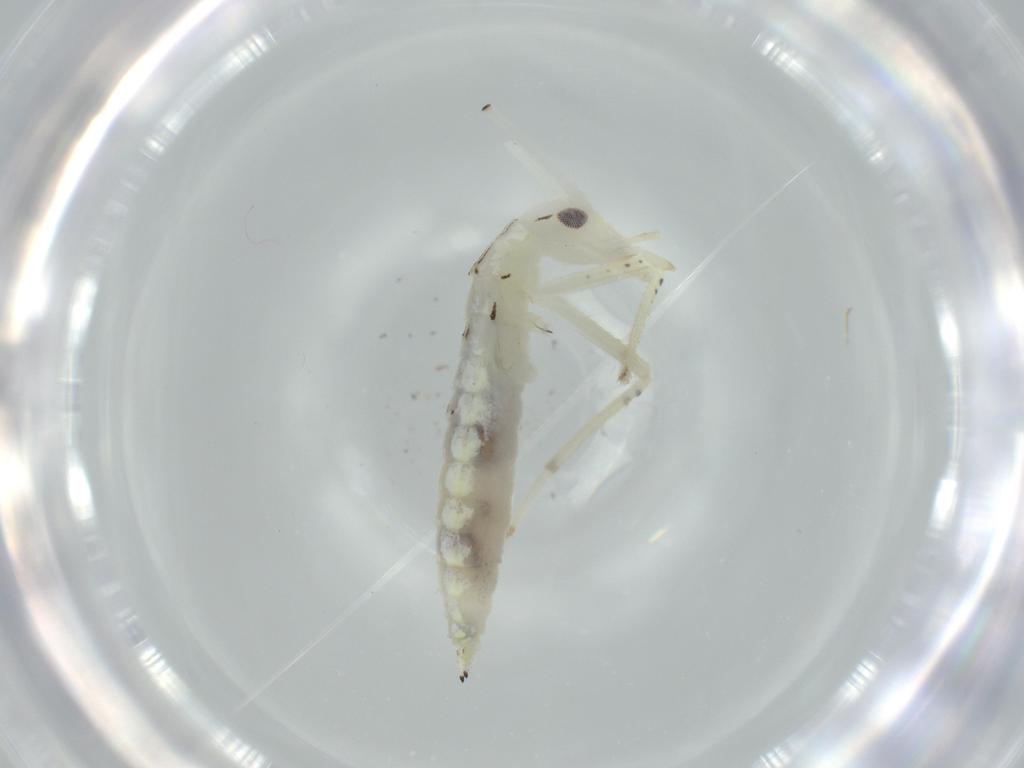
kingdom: Animalia
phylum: Arthropoda
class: Insecta
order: Orthoptera
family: Oecanthidae
